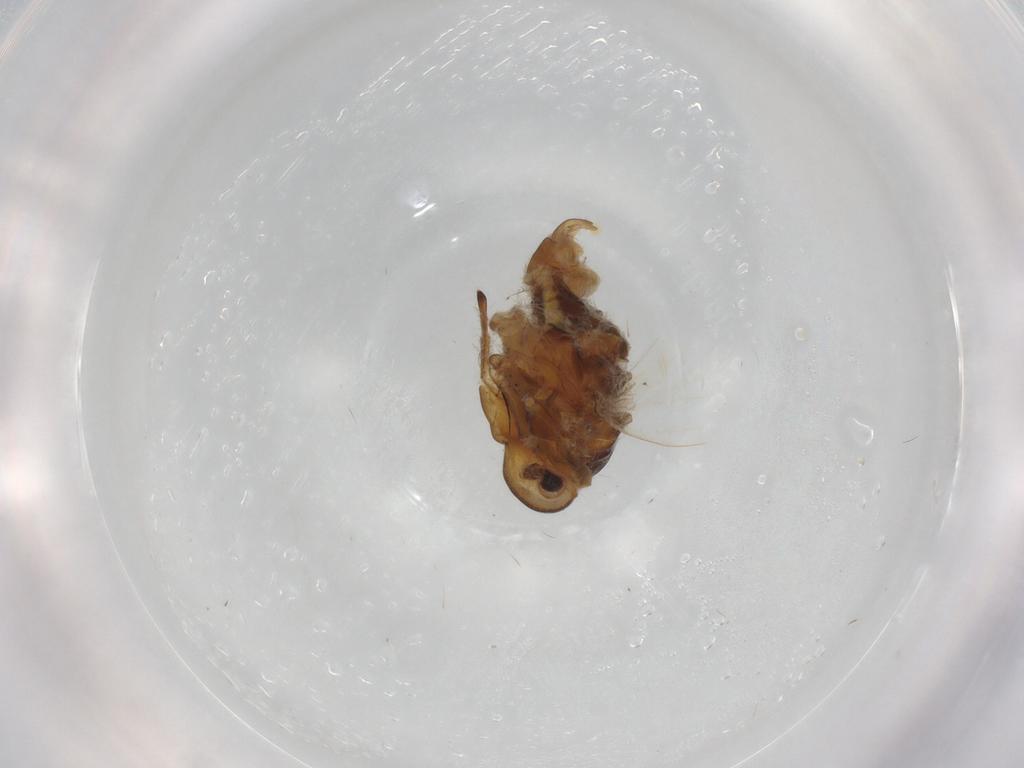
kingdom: Animalia
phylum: Arthropoda
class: Insecta
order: Hemiptera
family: Meenoplidae
